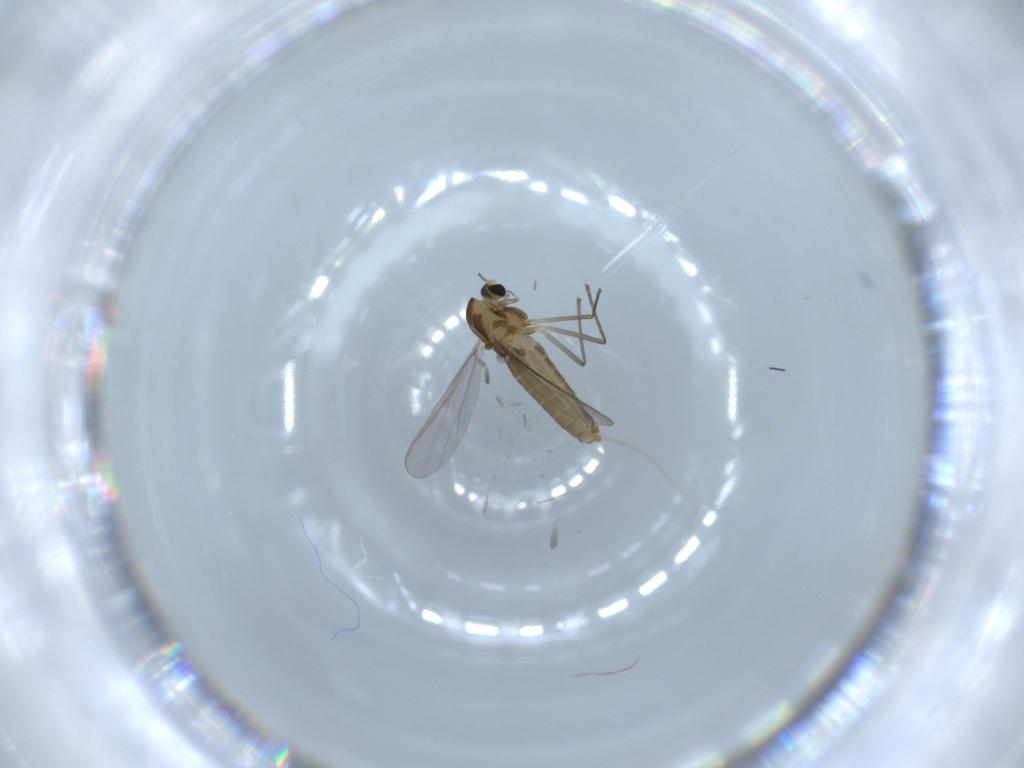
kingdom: Animalia
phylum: Arthropoda
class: Insecta
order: Diptera
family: Chironomidae
